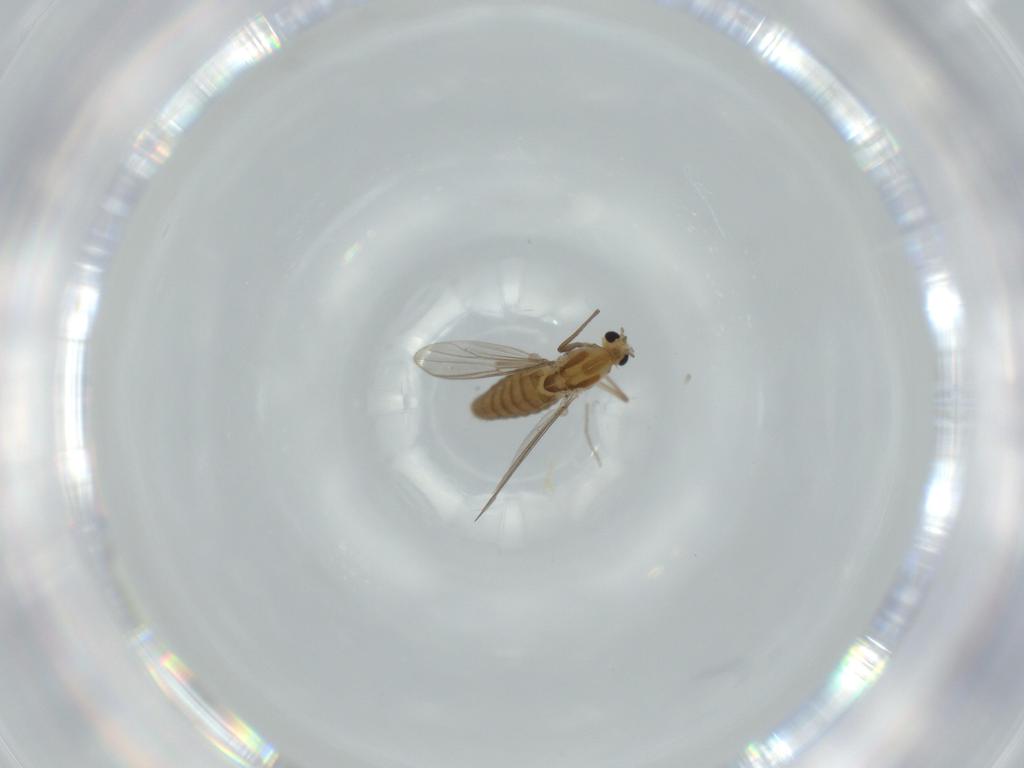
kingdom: Animalia
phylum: Arthropoda
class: Insecta
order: Diptera
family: Chironomidae
